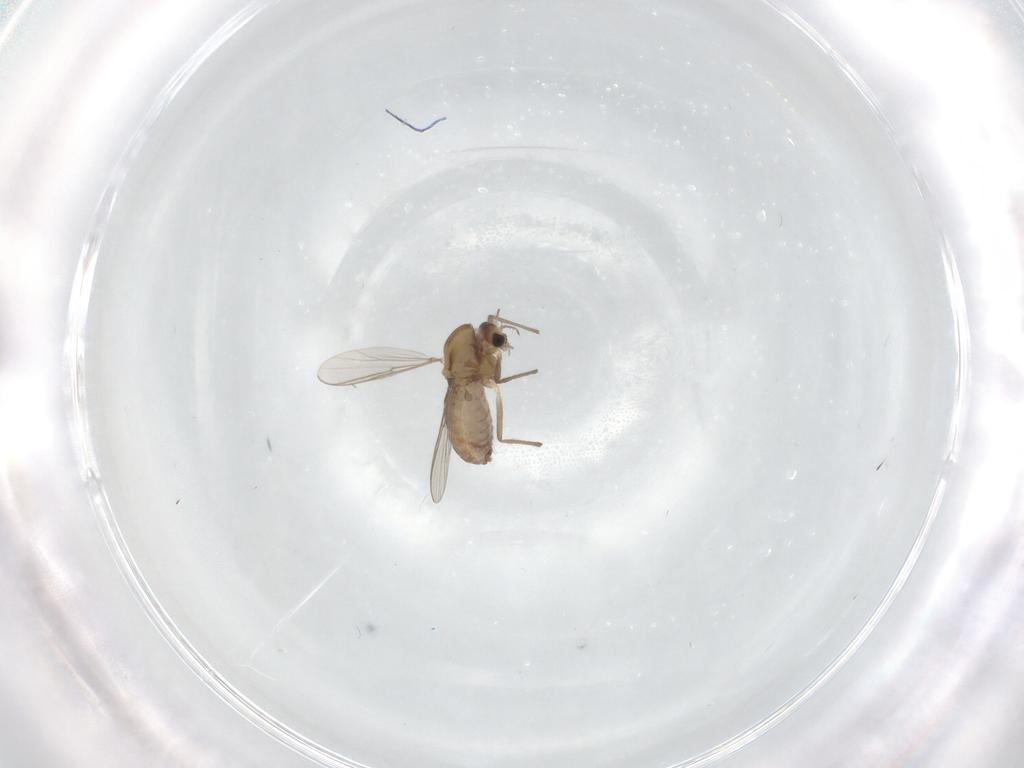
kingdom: Animalia
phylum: Arthropoda
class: Insecta
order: Diptera
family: Chironomidae
